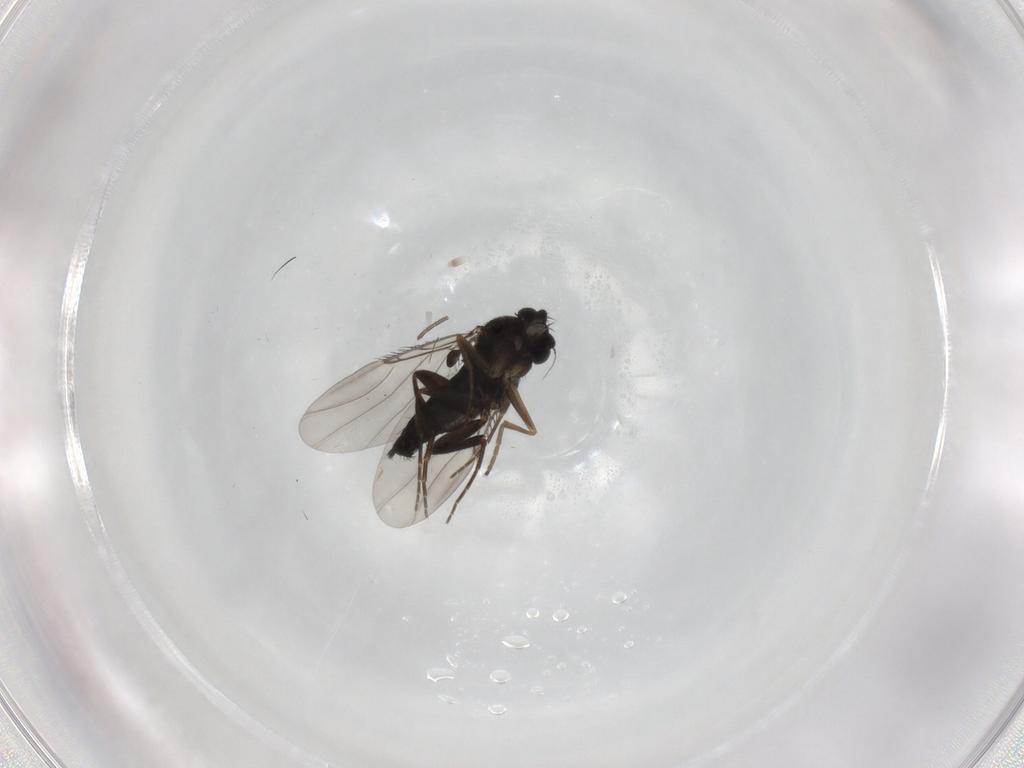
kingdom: Animalia
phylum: Arthropoda
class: Insecta
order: Diptera
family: Phoridae
